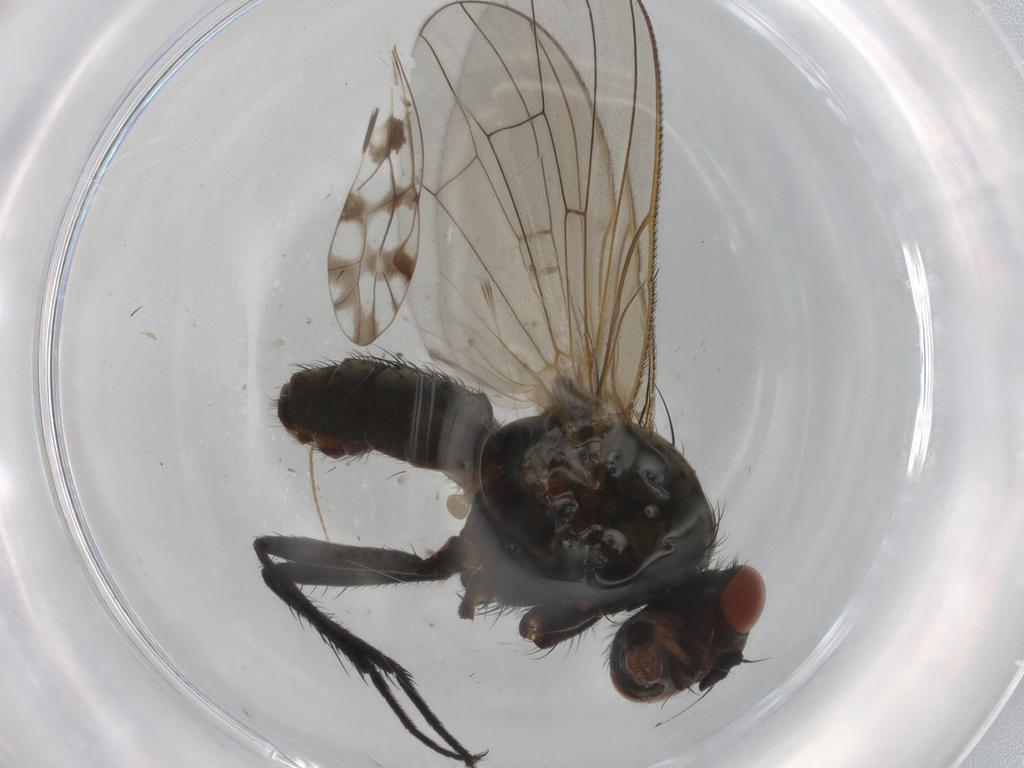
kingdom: Animalia
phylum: Arthropoda
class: Insecta
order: Diptera
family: Anthomyiidae
